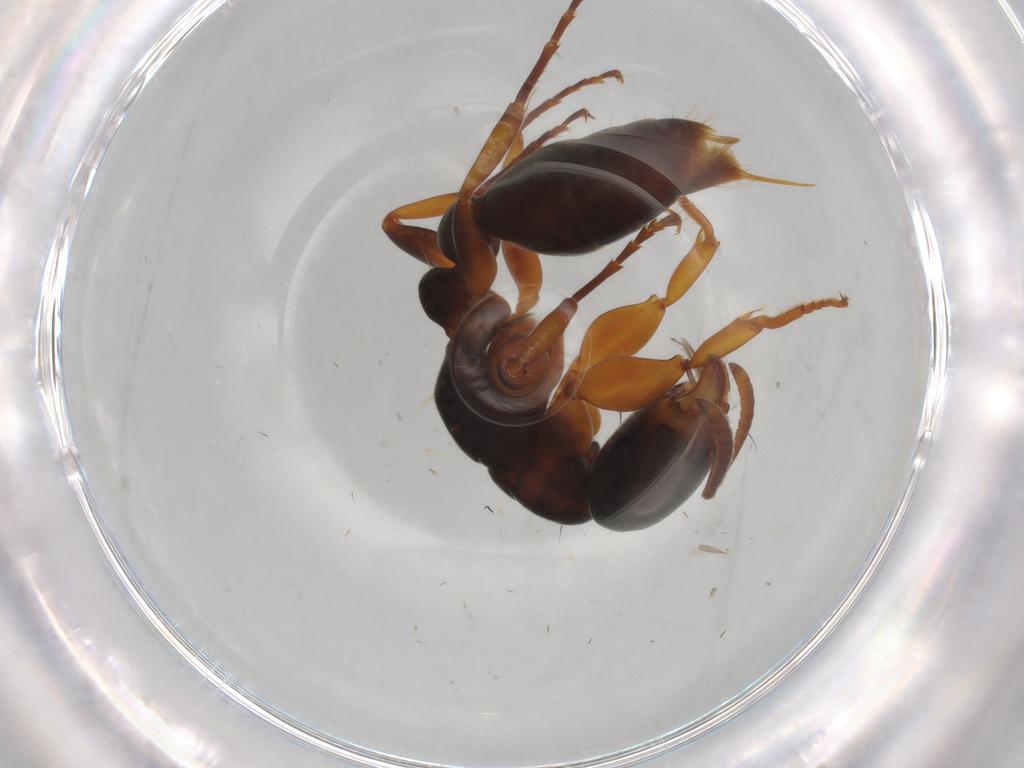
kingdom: Animalia
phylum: Arthropoda
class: Insecta
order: Hymenoptera
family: Formicidae
